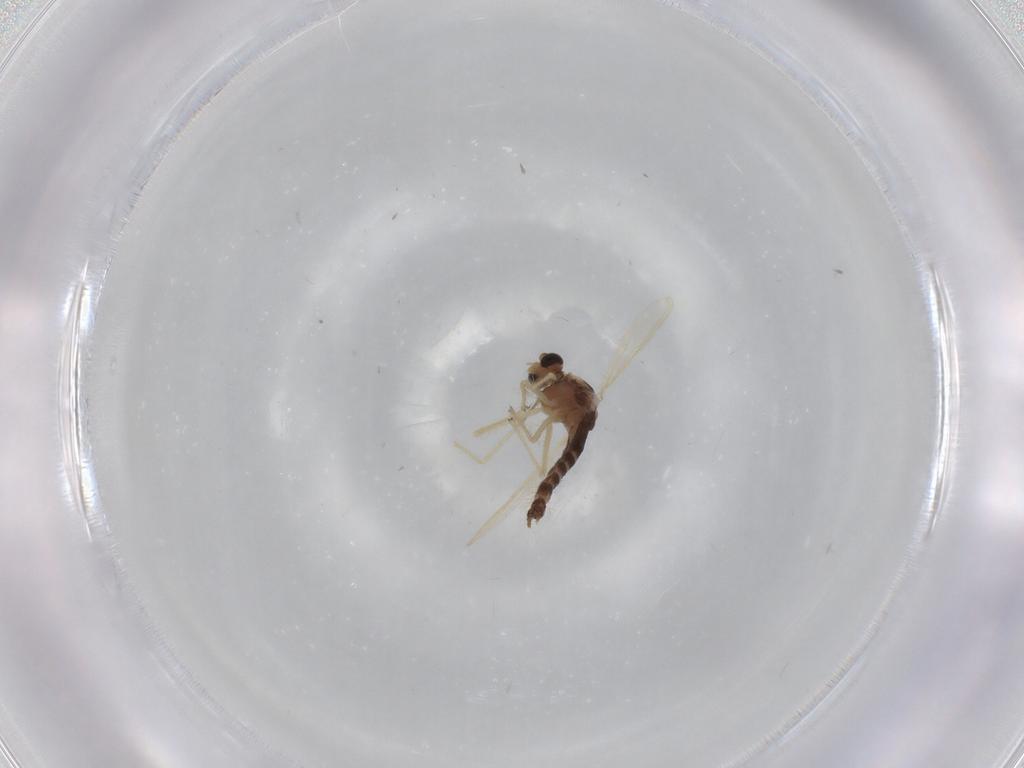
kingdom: Animalia
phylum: Arthropoda
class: Insecta
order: Diptera
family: Chironomidae
